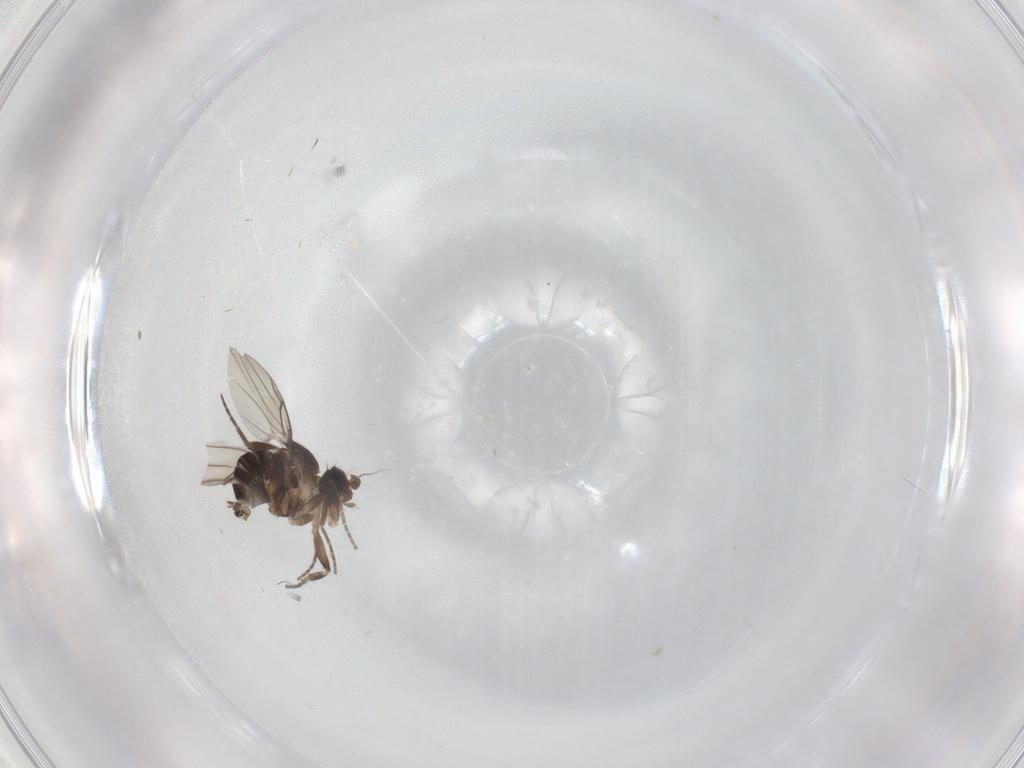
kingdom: Animalia
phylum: Arthropoda
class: Insecta
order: Diptera
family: Phoridae
